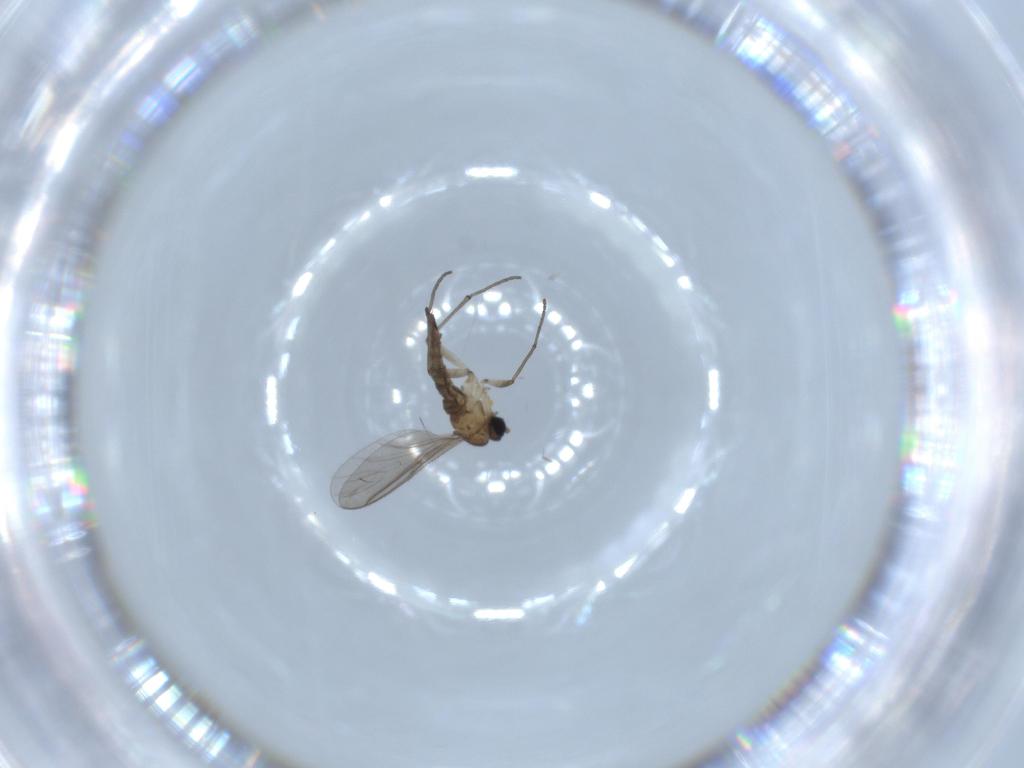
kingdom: Animalia
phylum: Arthropoda
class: Insecta
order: Diptera
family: Sciaridae
